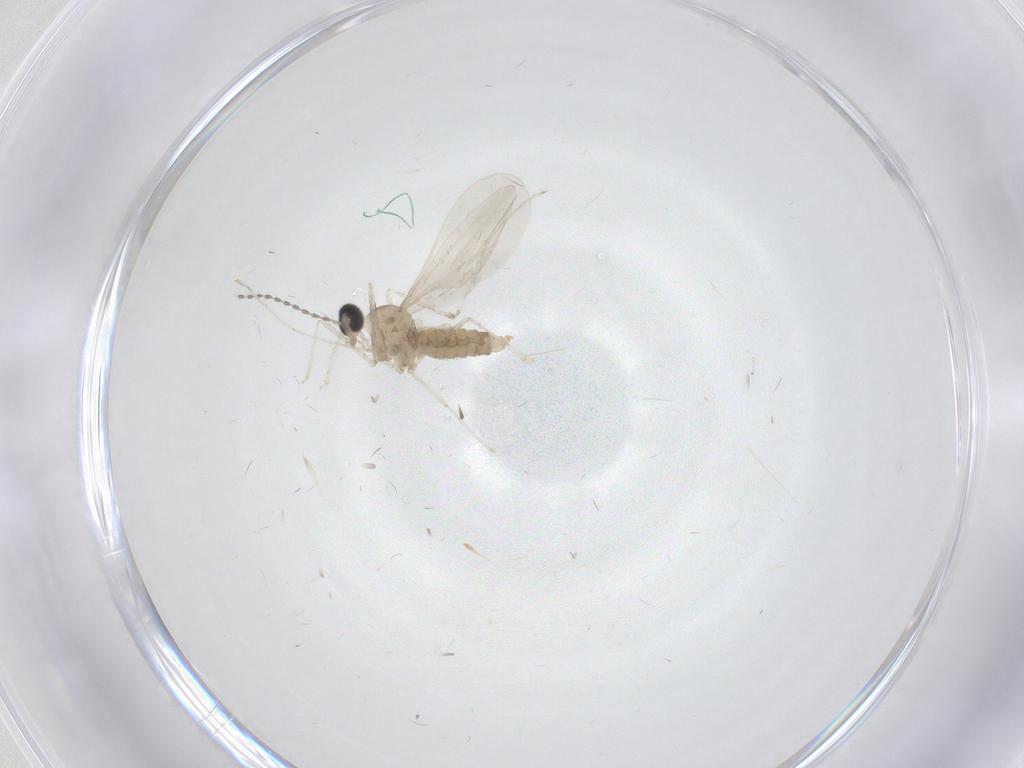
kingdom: Animalia
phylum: Arthropoda
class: Insecta
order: Diptera
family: Cecidomyiidae
